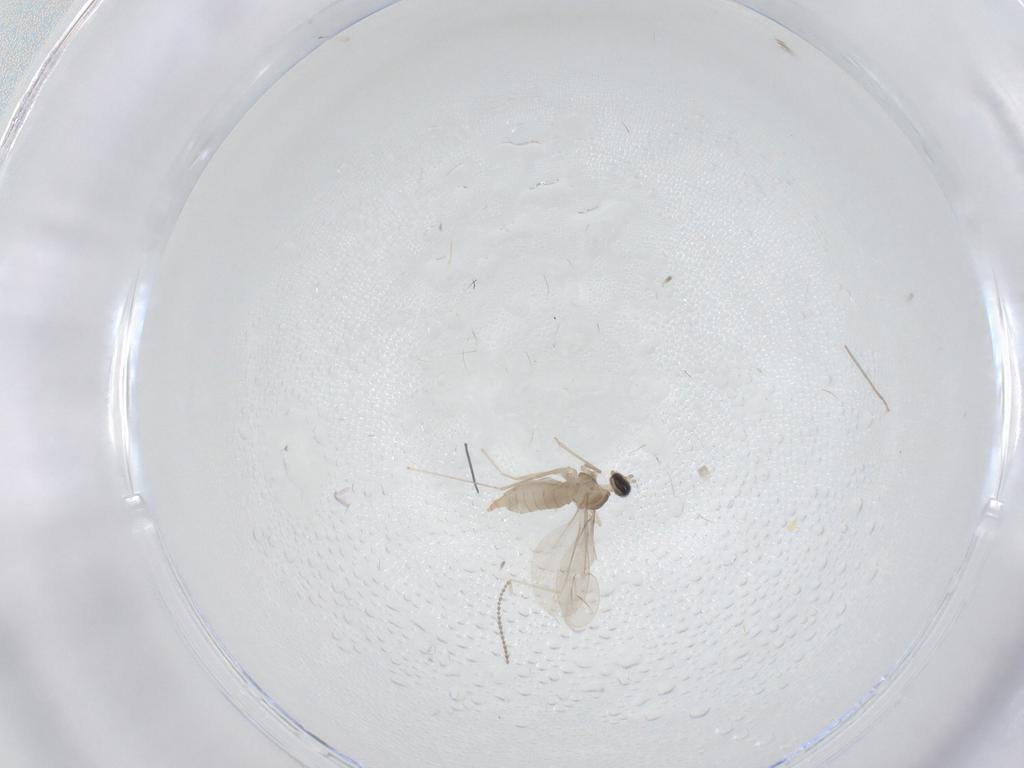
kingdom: Animalia
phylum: Arthropoda
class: Insecta
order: Diptera
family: Cecidomyiidae
